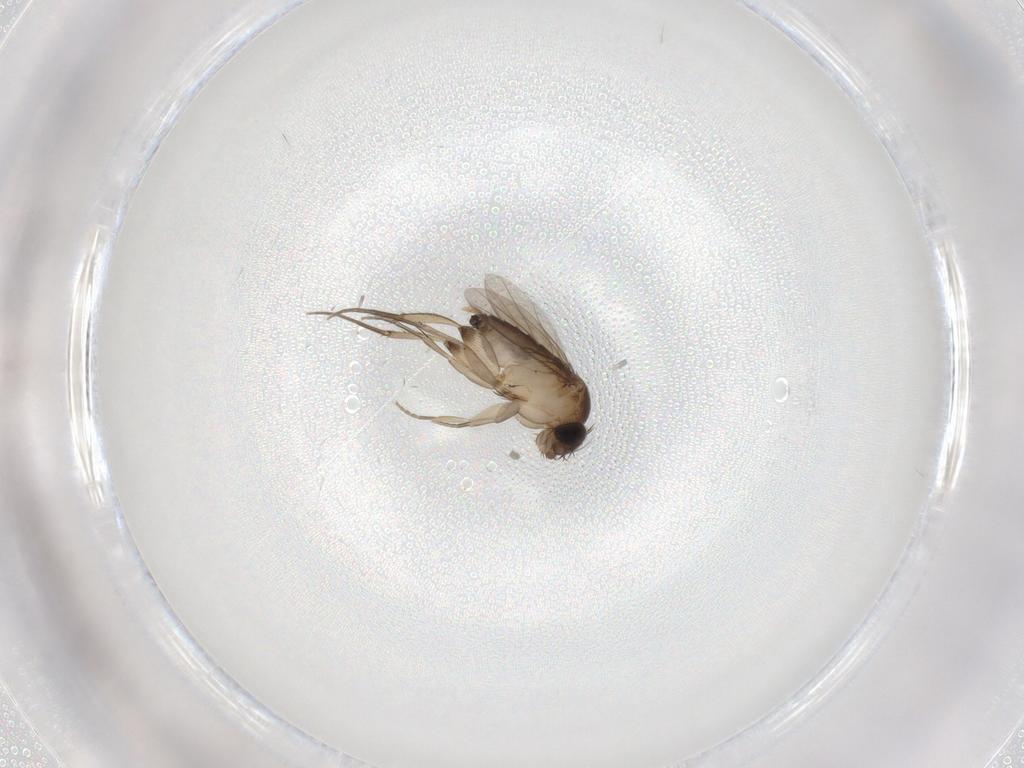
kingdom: Animalia
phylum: Arthropoda
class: Insecta
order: Diptera
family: Sciaridae
